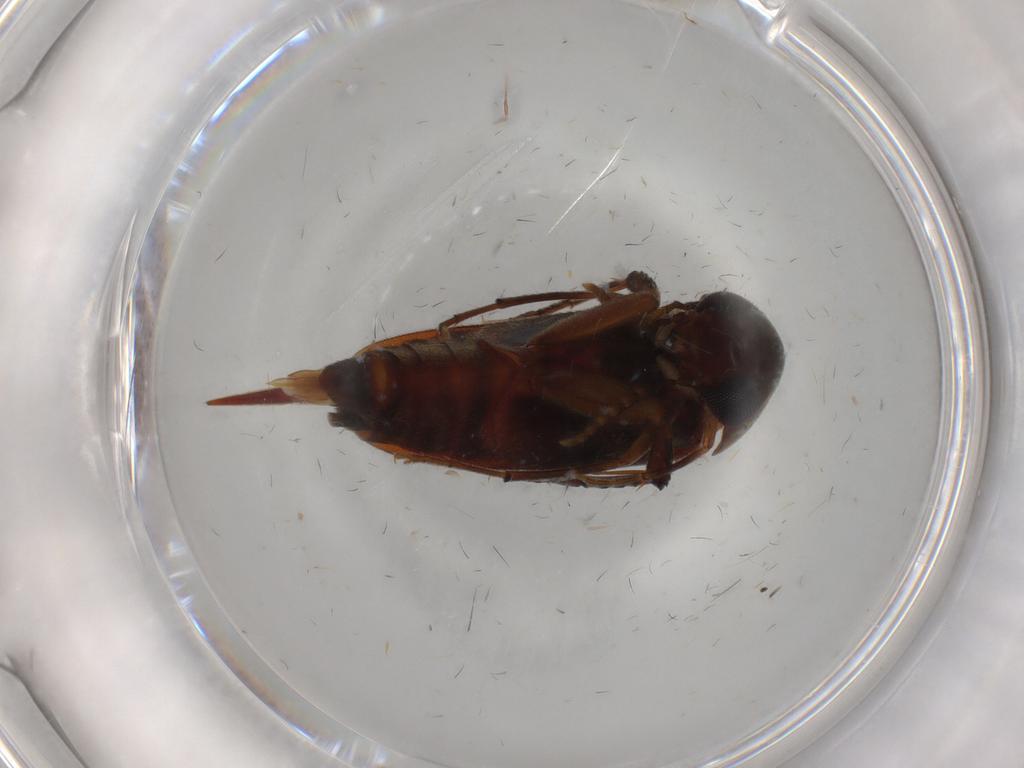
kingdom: Animalia
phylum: Arthropoda
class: Insecta
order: Coleoptera
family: Mordellidae
